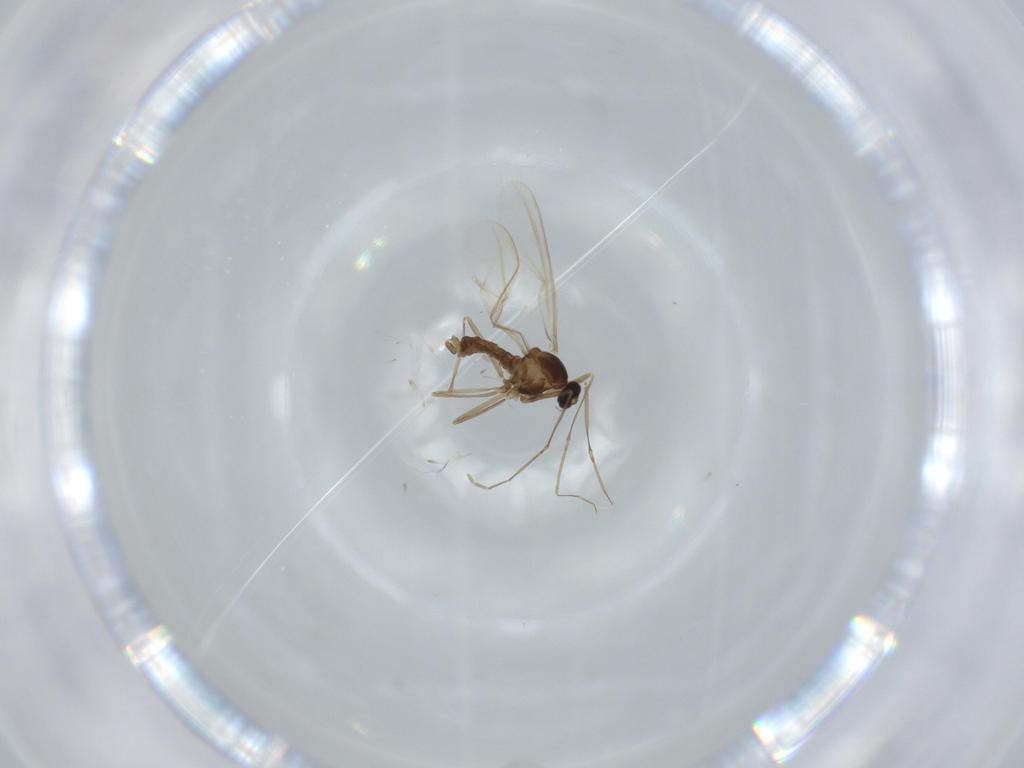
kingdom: Animalia
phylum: Arthropoda
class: Insecta
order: Diptera
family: Cecidomyiidae
